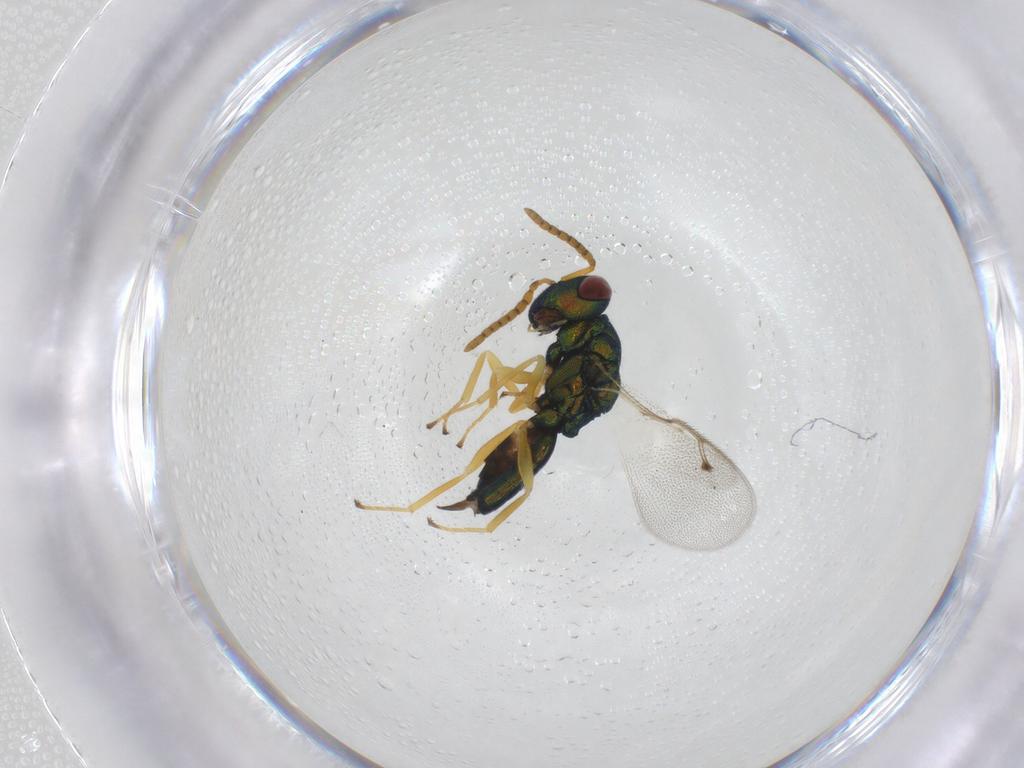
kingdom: Animalia
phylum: Arthropoda
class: Insecta
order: Hymenoptera
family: Pteromalidae
